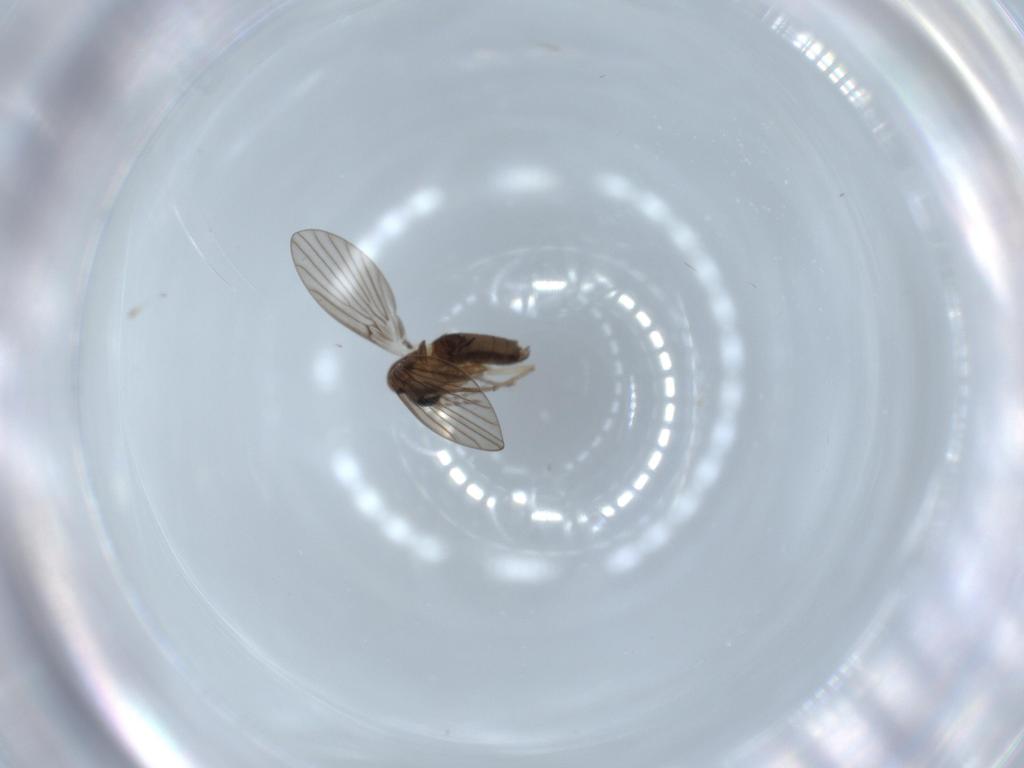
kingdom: Animalia
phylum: Arthropoda
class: Insecta
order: Diptera
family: Psychodidae
